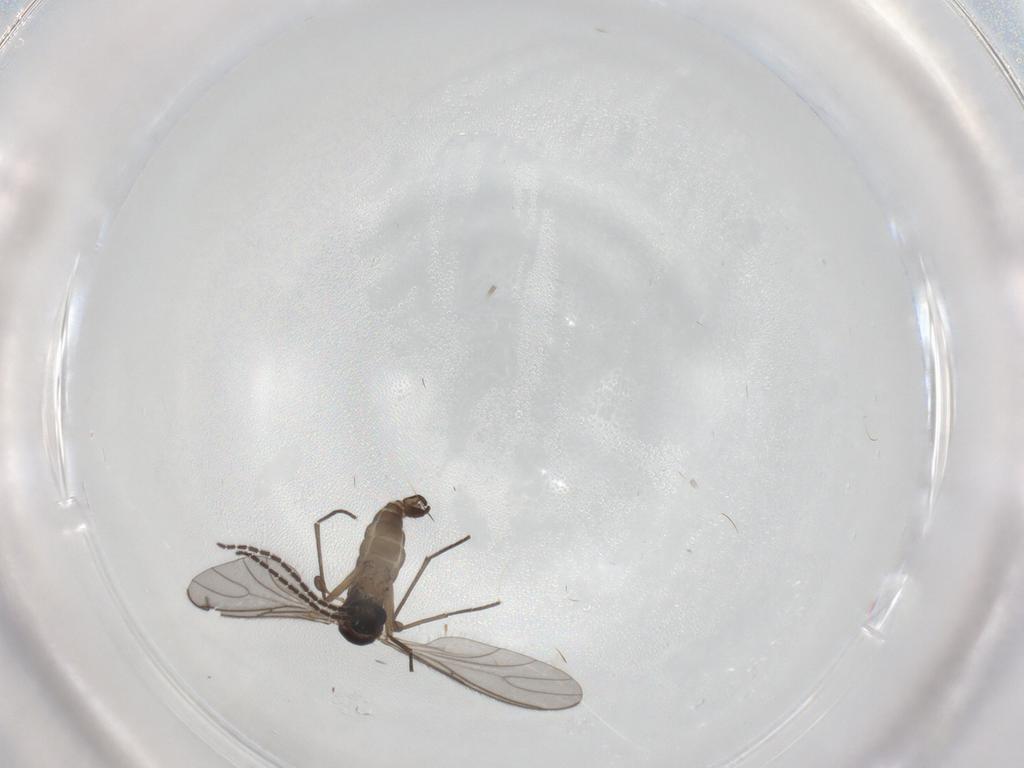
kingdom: Animalia
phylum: Arthropoda
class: Insecta
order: Diptera
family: Sciaridae
